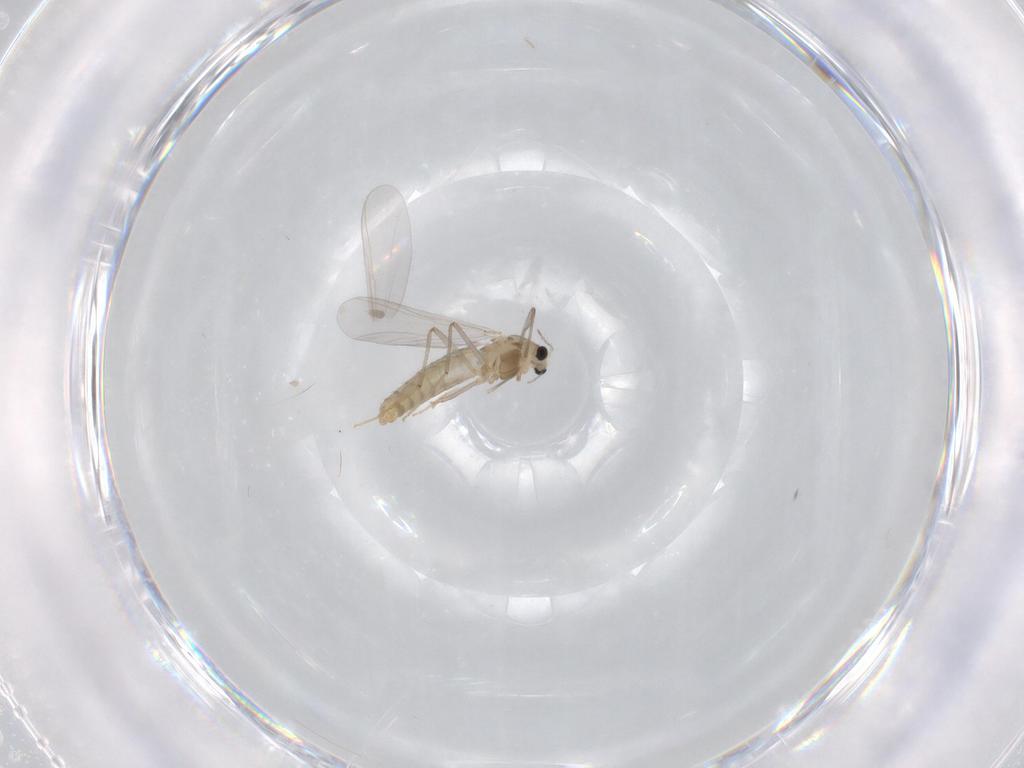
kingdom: Animalia
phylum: Arthropoda
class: Insecta
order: Diptera
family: Chironomidae
